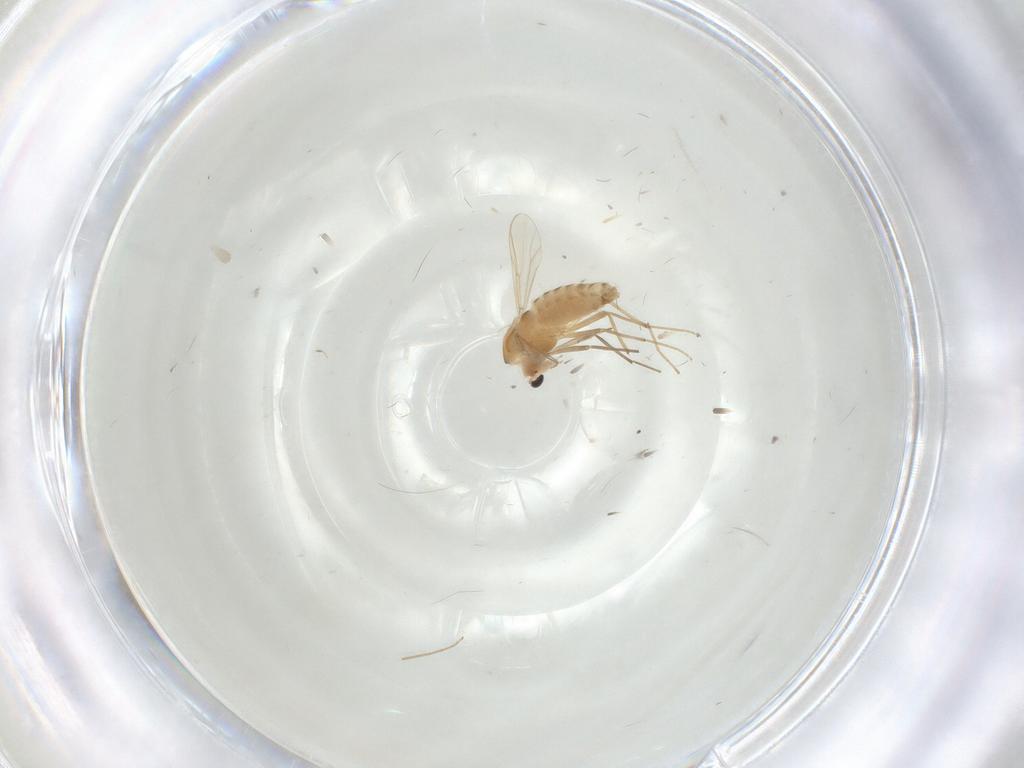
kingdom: Animalia
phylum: Arthropoda
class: Insecta
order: Diptera
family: Chironomidae
